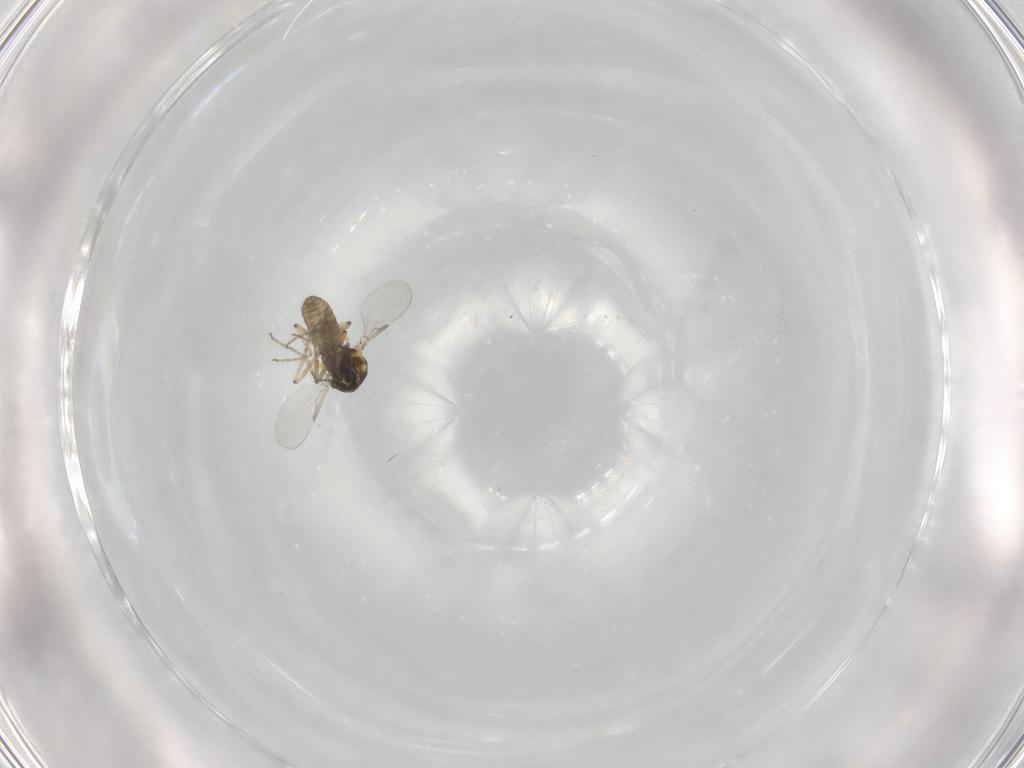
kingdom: Animalia
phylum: Arthropoda
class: Insecta
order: Diptera
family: Ceratopogonidae
